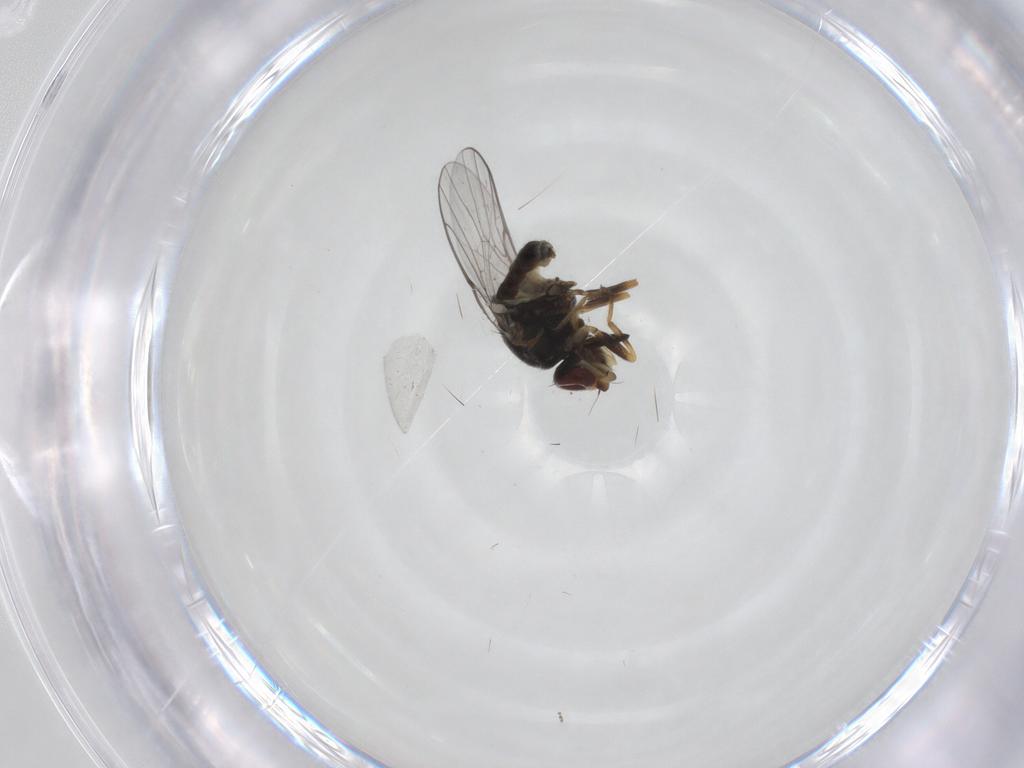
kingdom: Animalia
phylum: Arthropoda
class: Insecta
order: Diptera
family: Chloropidae
